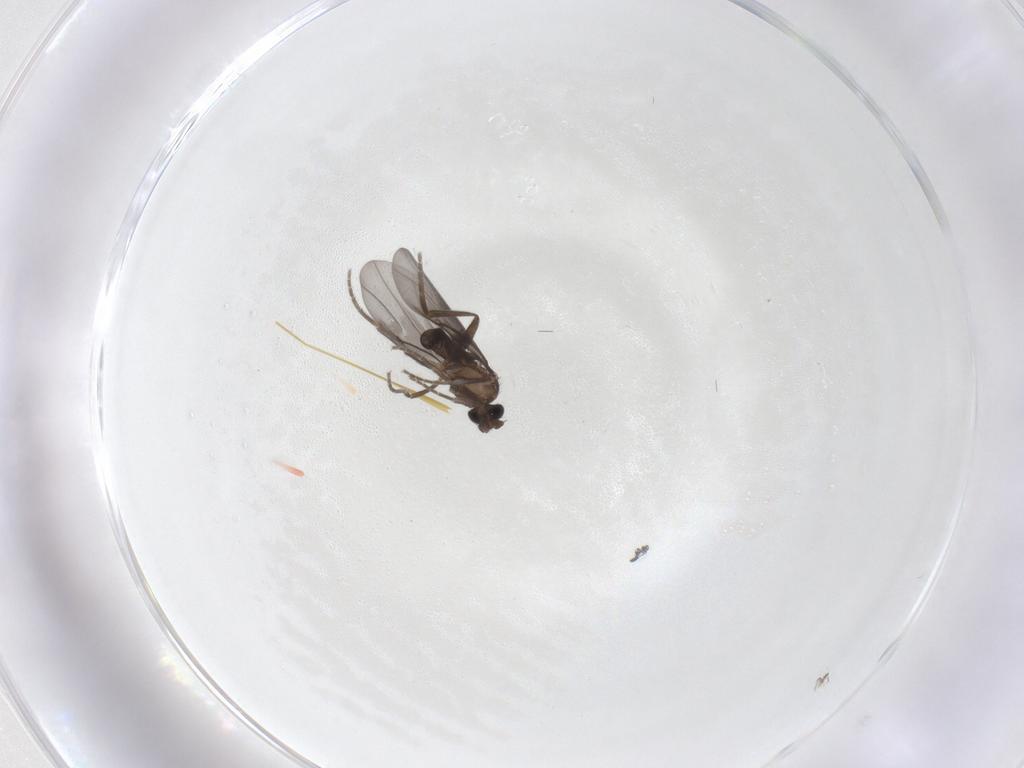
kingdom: Animalia
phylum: Arthropoda
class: Insecta
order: Diptera
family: Phoridae
